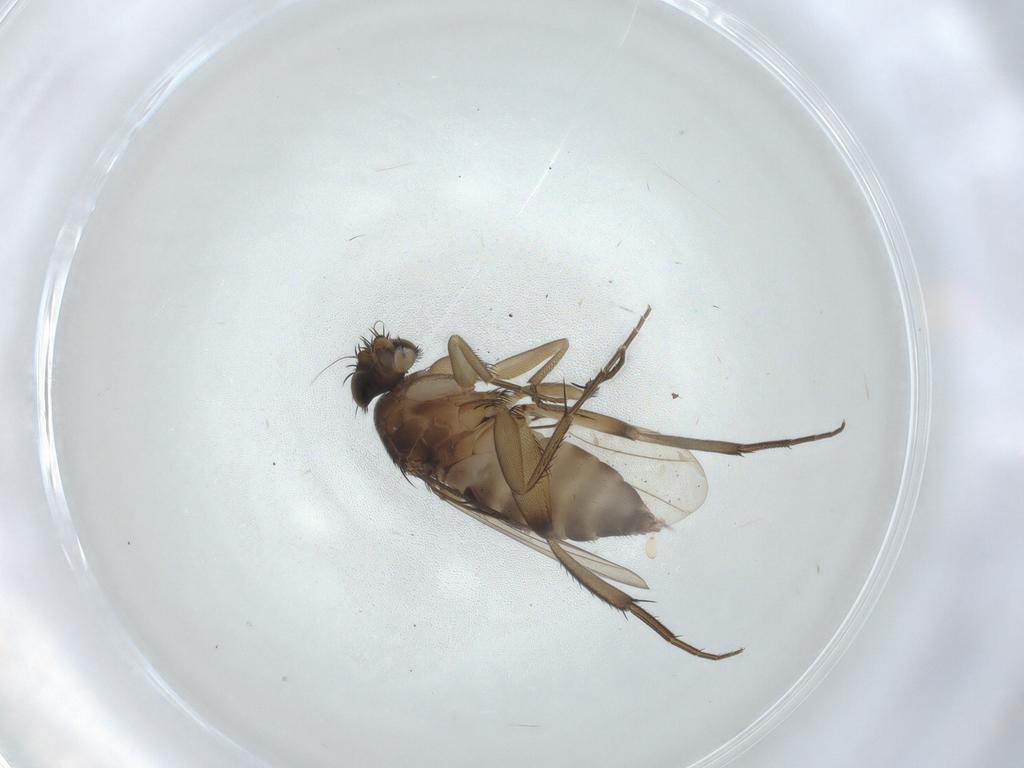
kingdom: Animalia
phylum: Arthropoda
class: Insecta
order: Diptera
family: Phoridae
